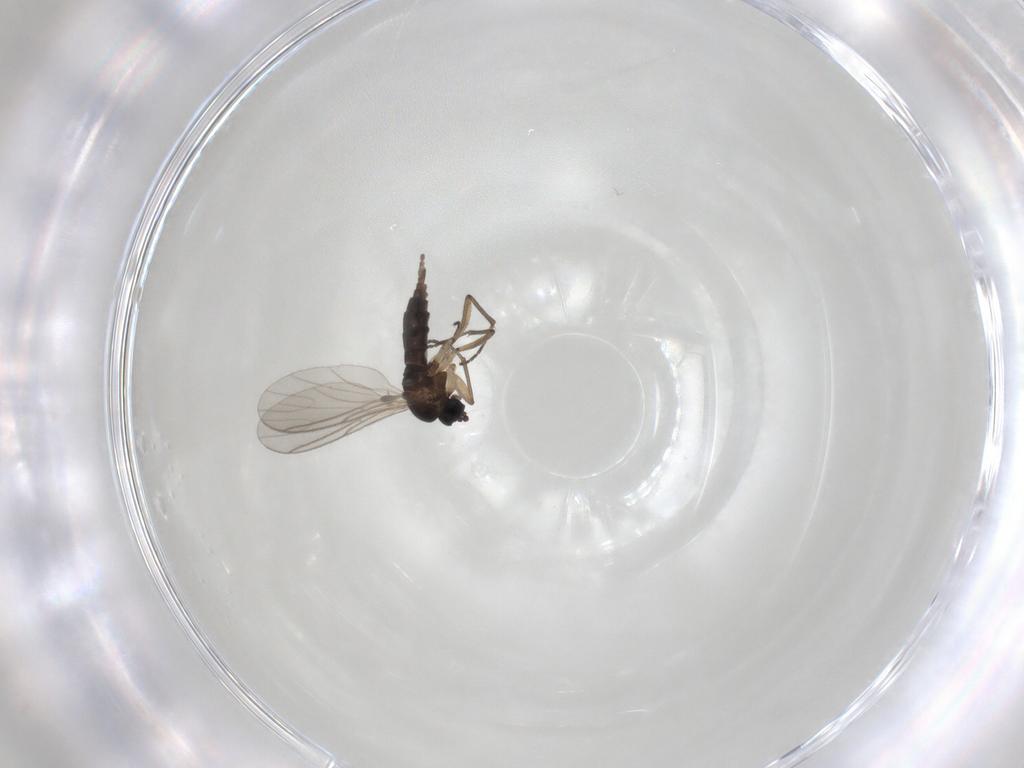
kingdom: Animalia
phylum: Arthropoda
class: Insecta
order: Diptera
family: Sciaridae
